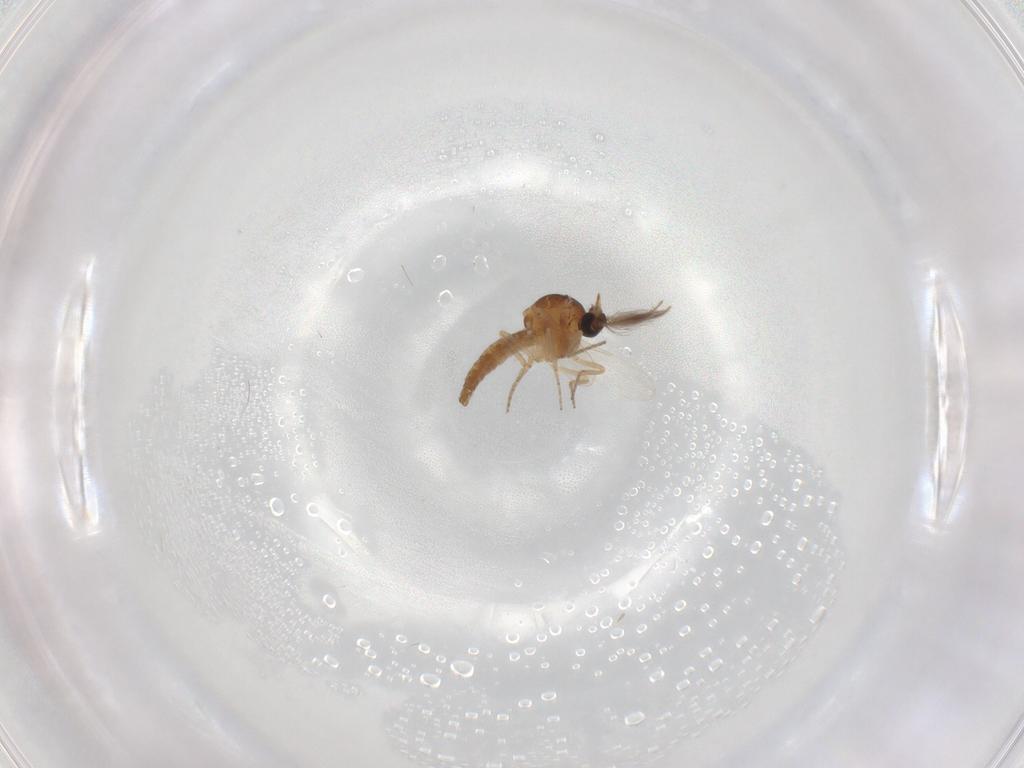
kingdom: Animalia
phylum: Arthropoda
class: Insecta
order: Diptera
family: Ceratopogonidae
